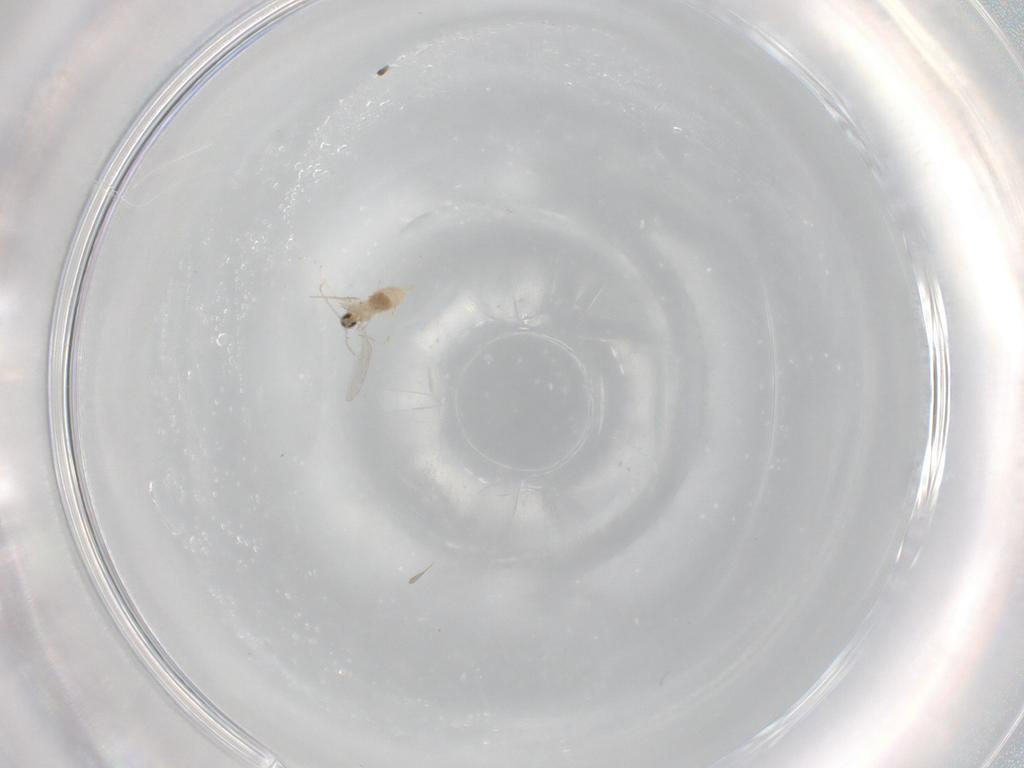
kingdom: Animalia
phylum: Arthropoda
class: Insecta
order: Diptera
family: Cecidomyiidae
